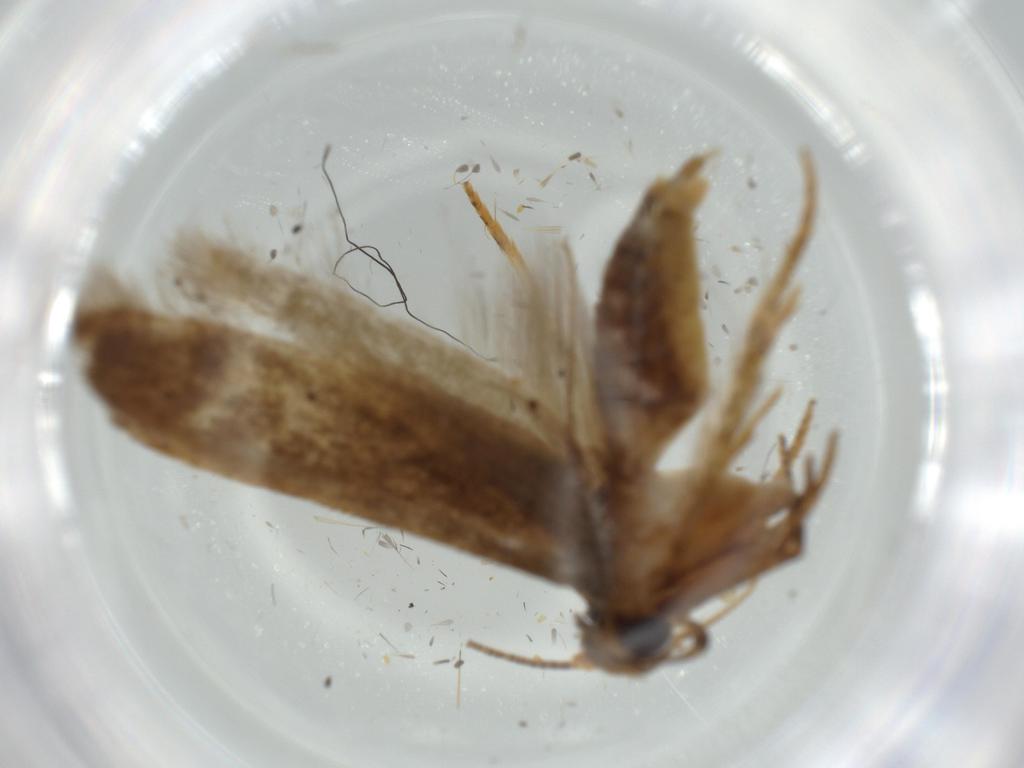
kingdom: Animalia
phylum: Arthropoda
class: Insecta
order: Lepidoptera
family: Coleophoridae
